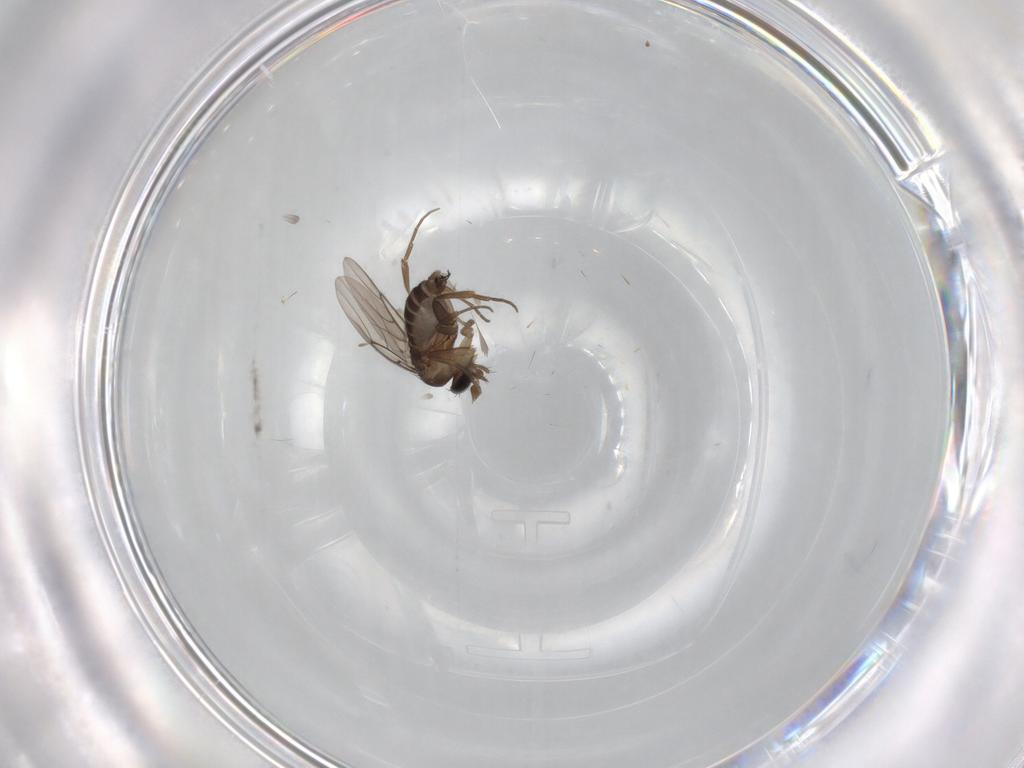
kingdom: Animalia
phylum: Arthropoda
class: Insecta
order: Diptera
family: Phoridae
